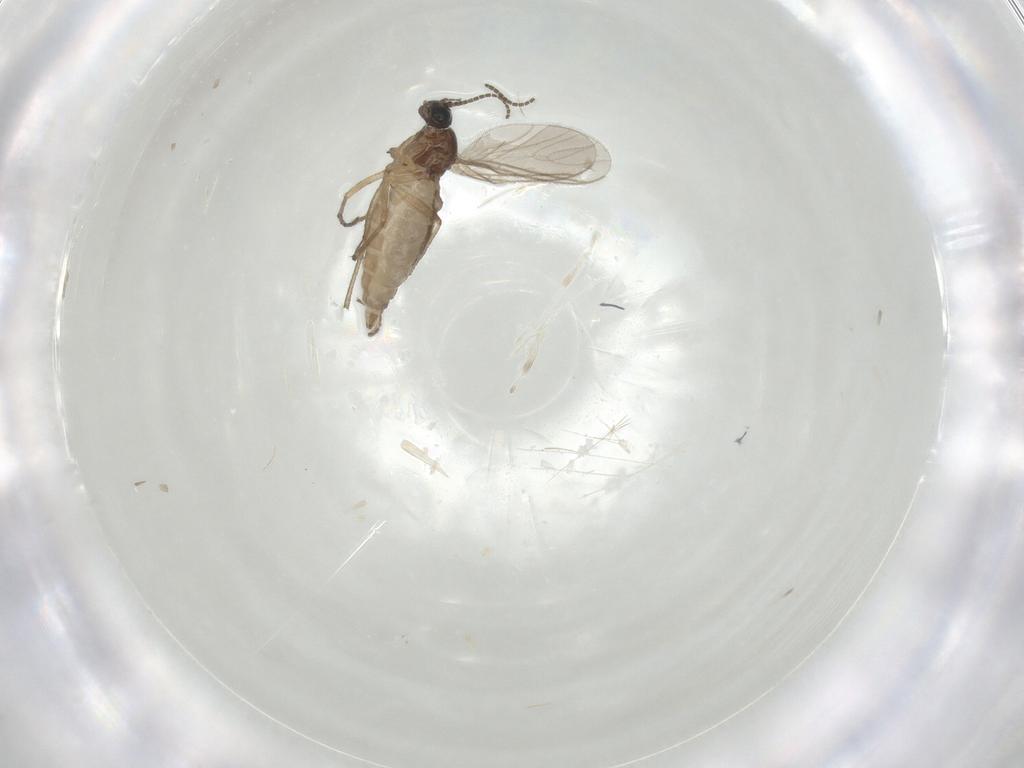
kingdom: Animalia
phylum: Arthropoda
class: Insecta
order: Diptera
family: Sciaridae
